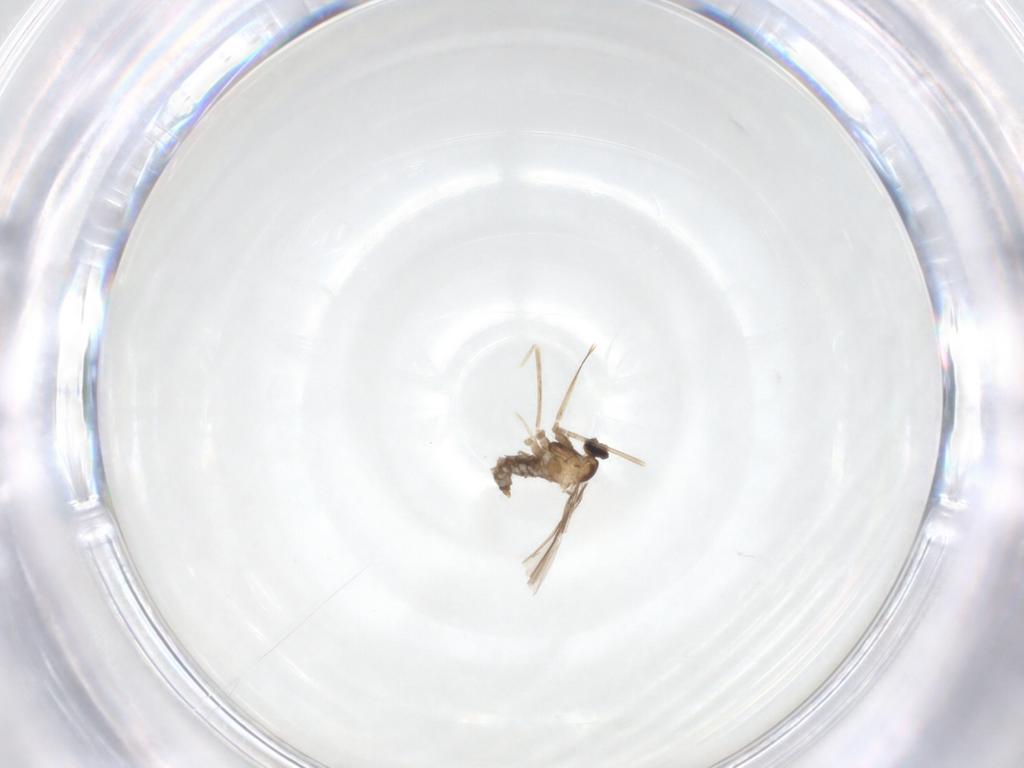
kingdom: Animalia
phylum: Arthropoda
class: Insecta
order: Diptera
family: Cecidomyiidae
